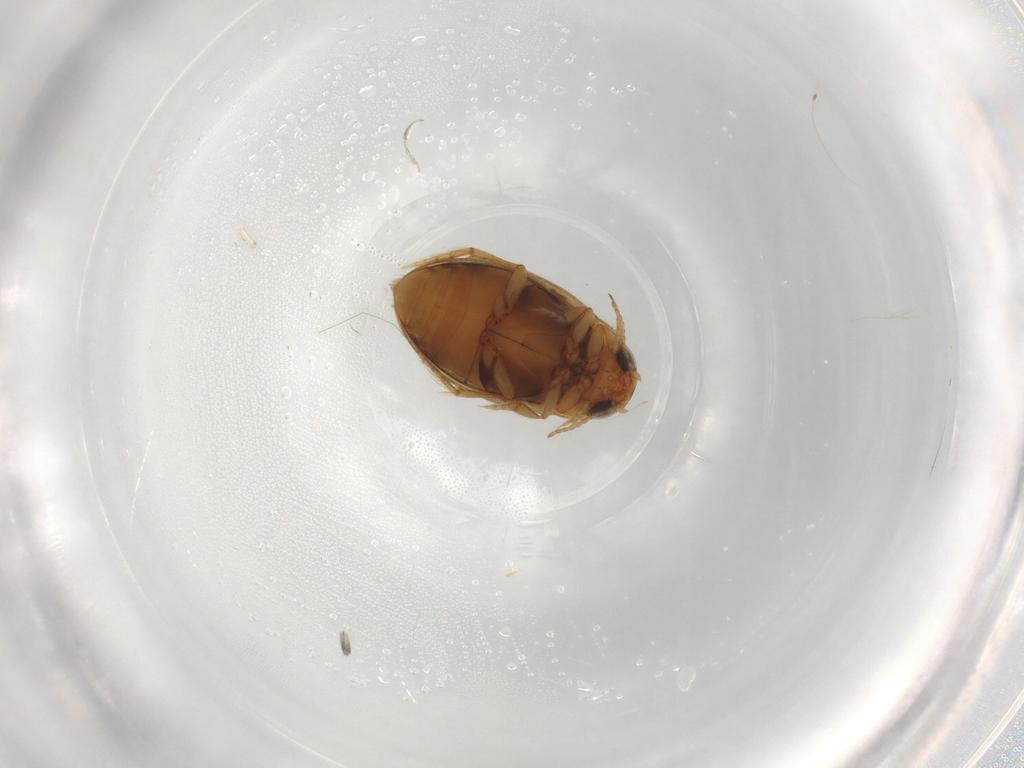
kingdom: Animalia
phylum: Arthropoda
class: Insecta
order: Coleoptera
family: Dytiscidae
